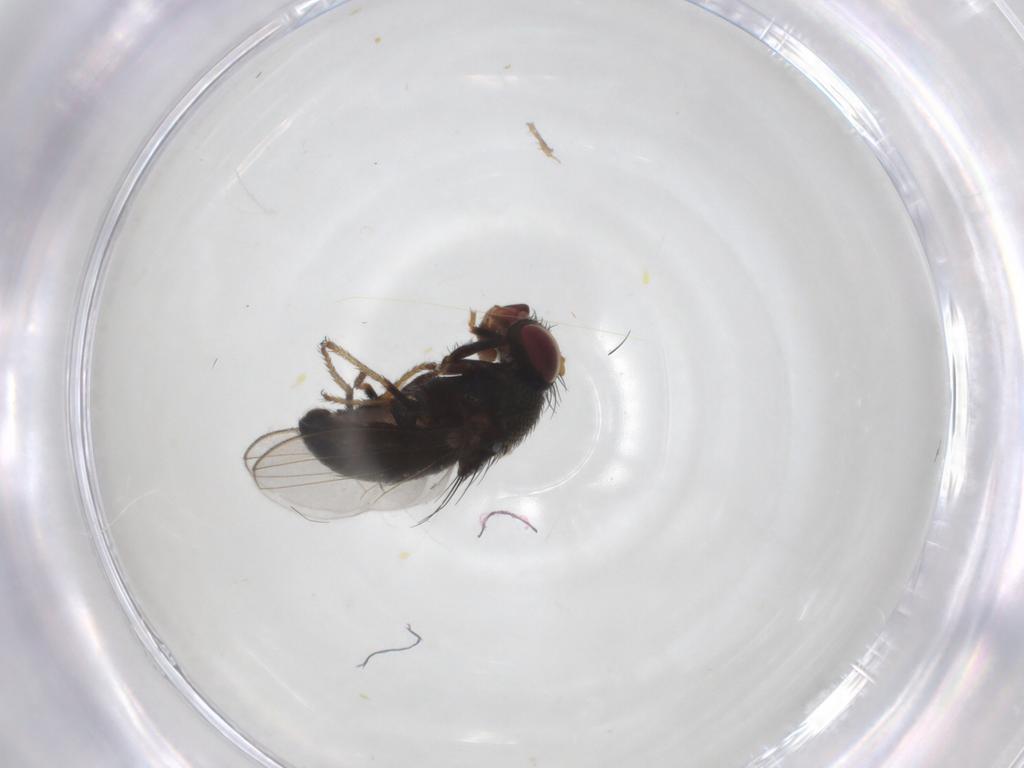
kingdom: Animalia
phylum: Arthropoda
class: Insecta
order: Diptera
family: Ephydridae
